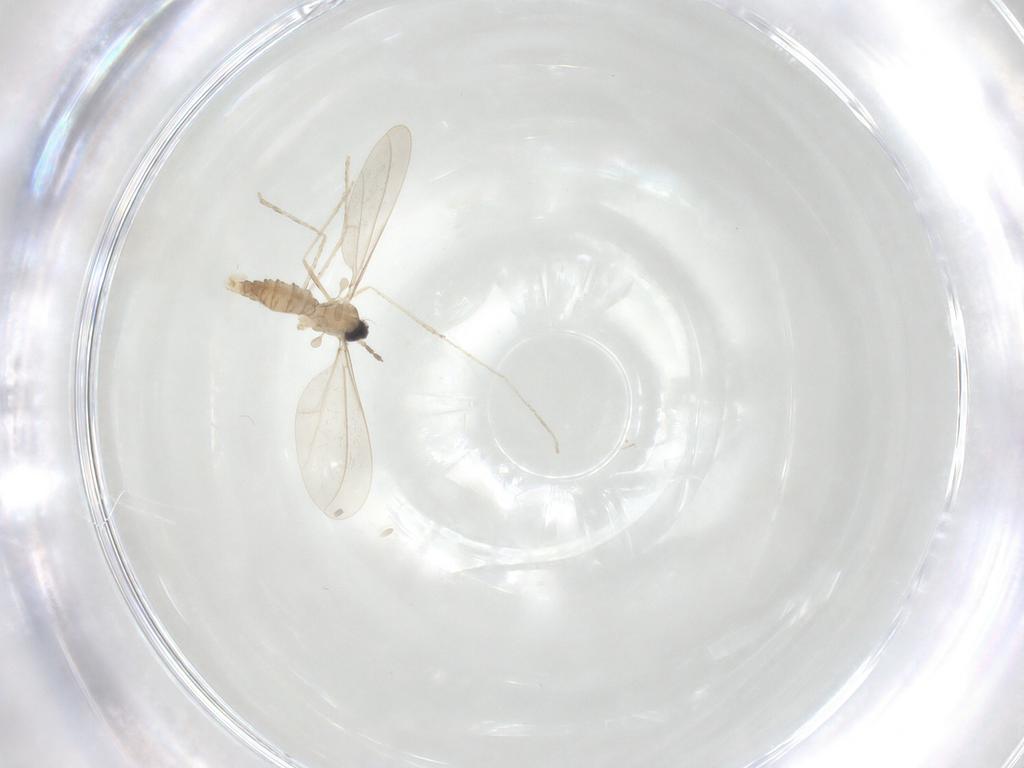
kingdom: Animalia
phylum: Arthropoda
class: Insecta
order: Diptera
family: Cecidomyiidae
